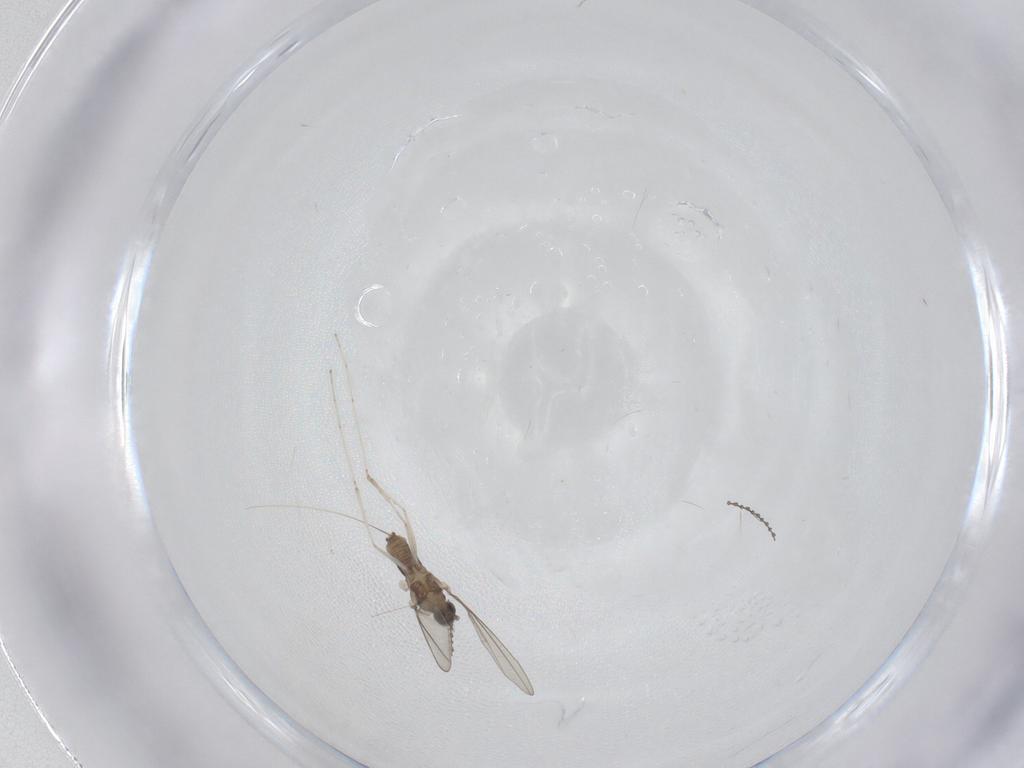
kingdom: Animalia
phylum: Arthropoda
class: Insecta
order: Diptera
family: Cecidomyiidae
